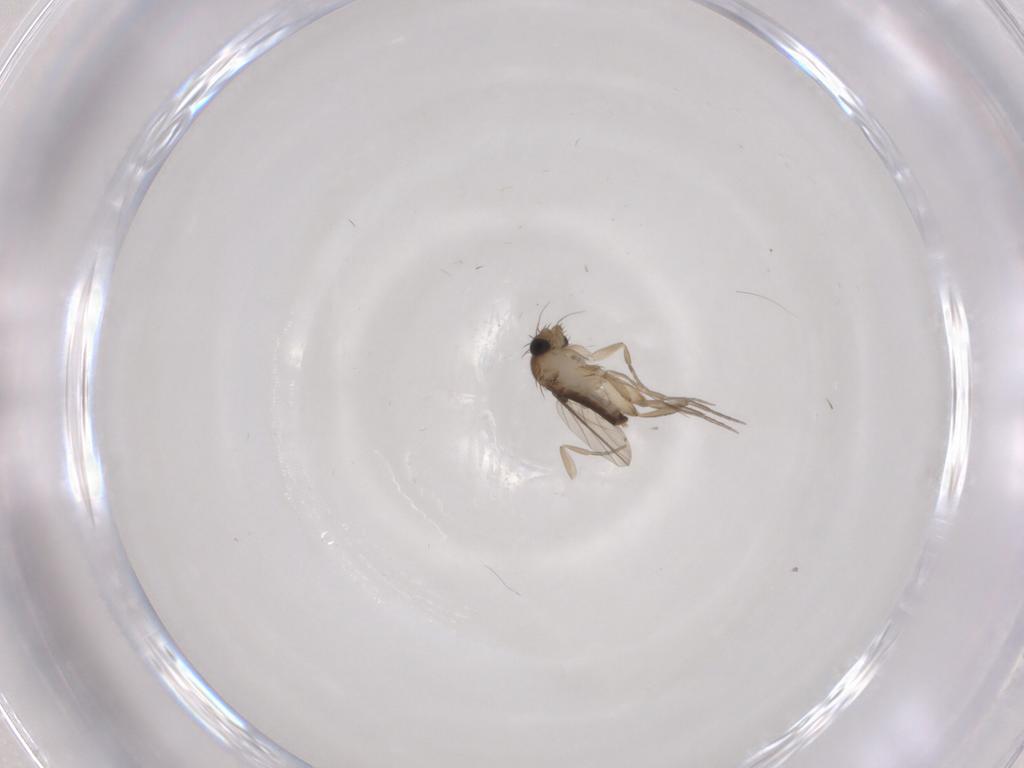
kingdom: Animalia
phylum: Arthropoda
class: Insecta
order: Diptera
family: Phoridae
